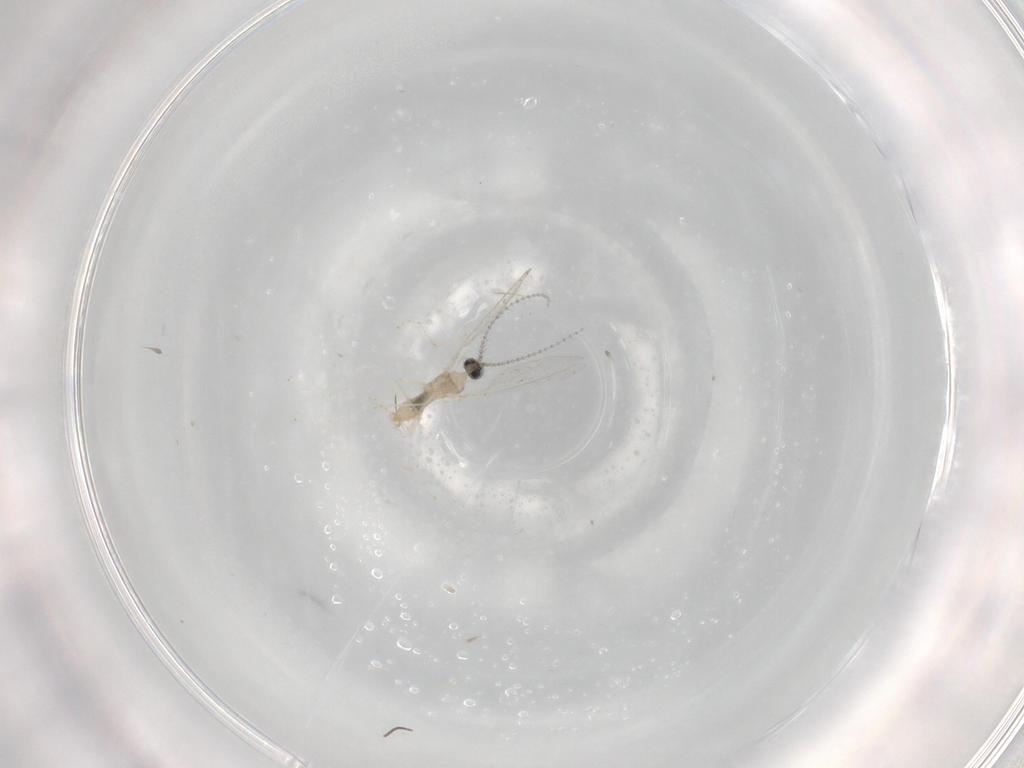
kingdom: Animalia
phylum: Arthropoda
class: Insecta
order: Diptera
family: Cecidomyiidae
